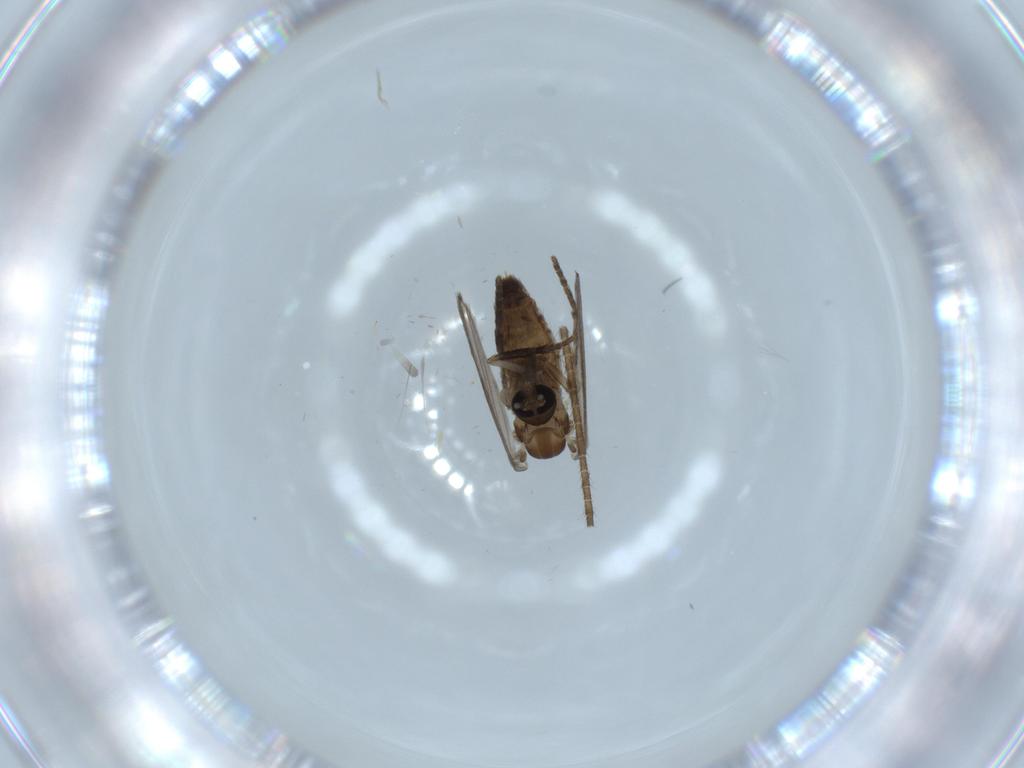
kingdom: Animalia
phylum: Arthropoda
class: Insecta
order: Diptera
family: Psychodidae
